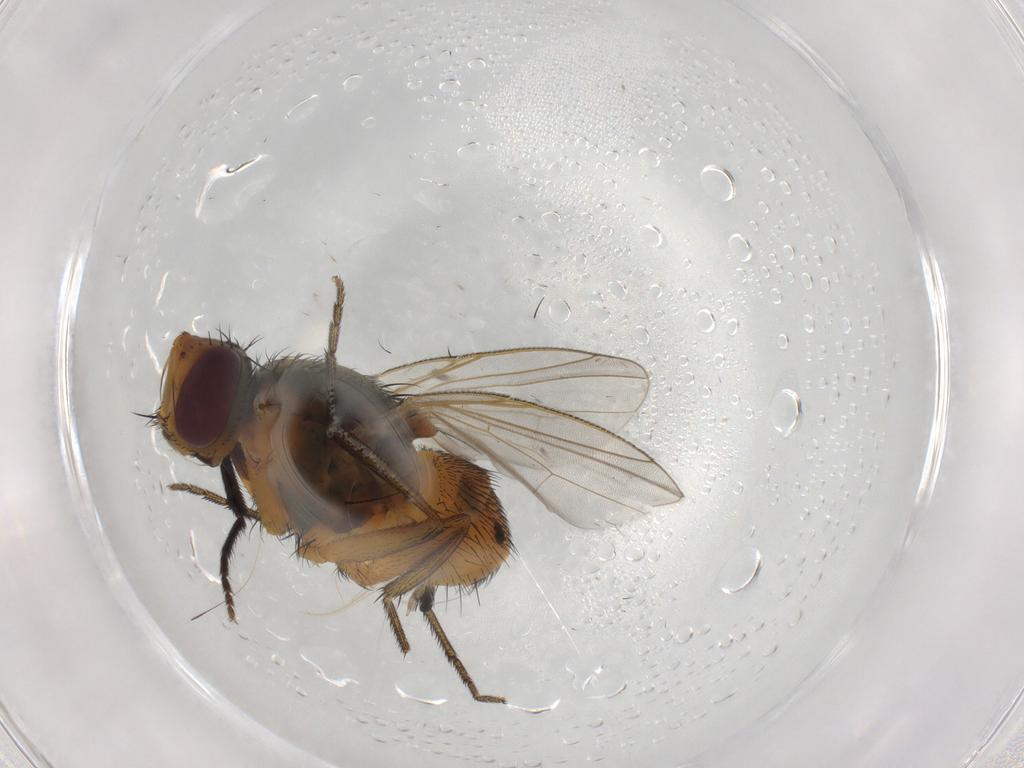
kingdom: Animalia
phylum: Arthropoda
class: Insecta
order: Diptera
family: Muscidae
